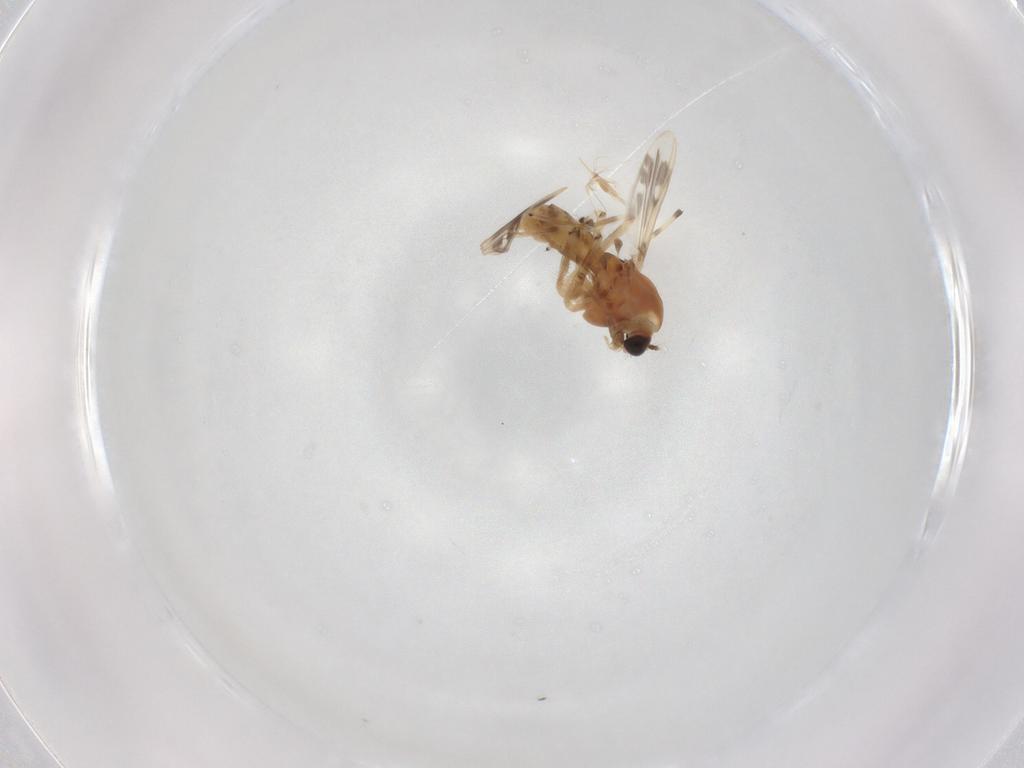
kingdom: Animalia
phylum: Arthropoda
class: Insecta
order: Diptera
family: Chironomidae
